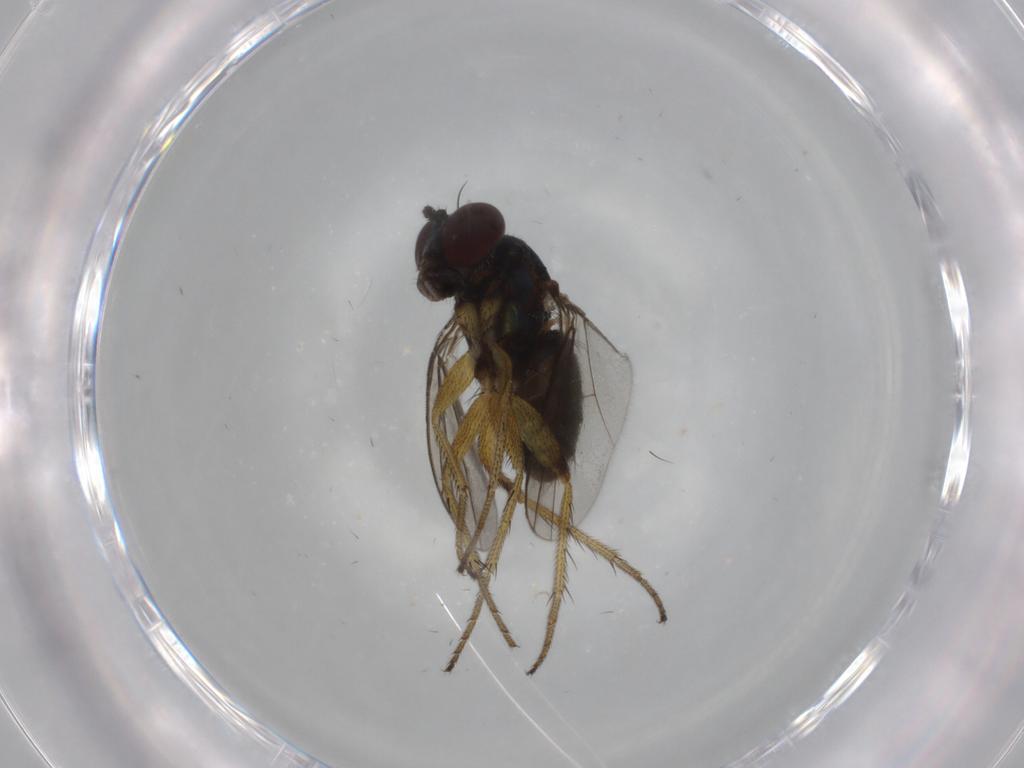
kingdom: Animalia
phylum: Arthropoda
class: Insecta
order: Diptera
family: Dolichopodidae
